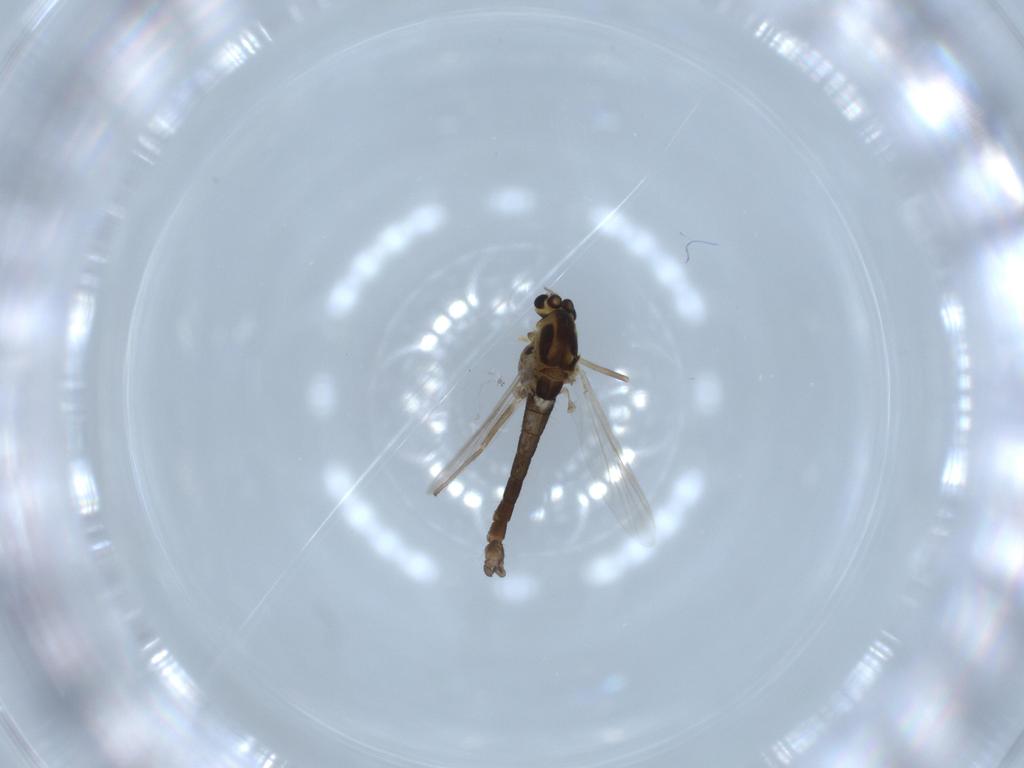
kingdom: Animalia
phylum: Arthropoda
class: Insecta
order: Diptera
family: Chironomidae
